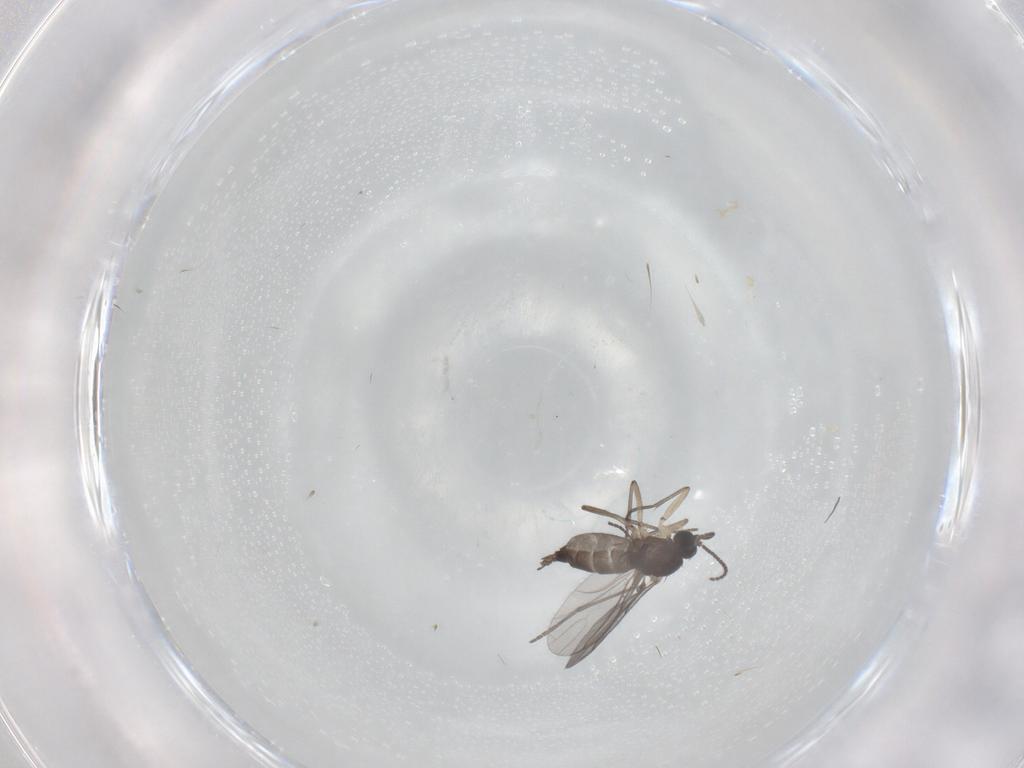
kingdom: Animalia
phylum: Arthropoda
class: Insecta
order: Diptera
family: Sciaridae
